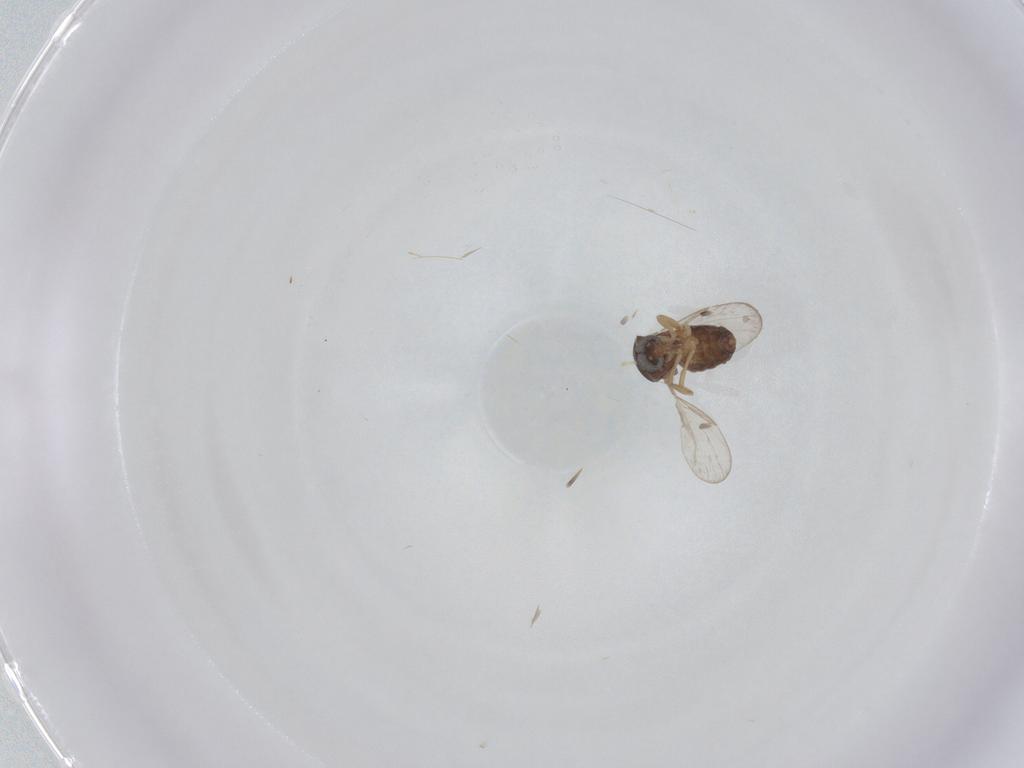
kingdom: Animalia
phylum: Arthropoda
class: Insecta
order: Diptera
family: Ceratopogonidae
